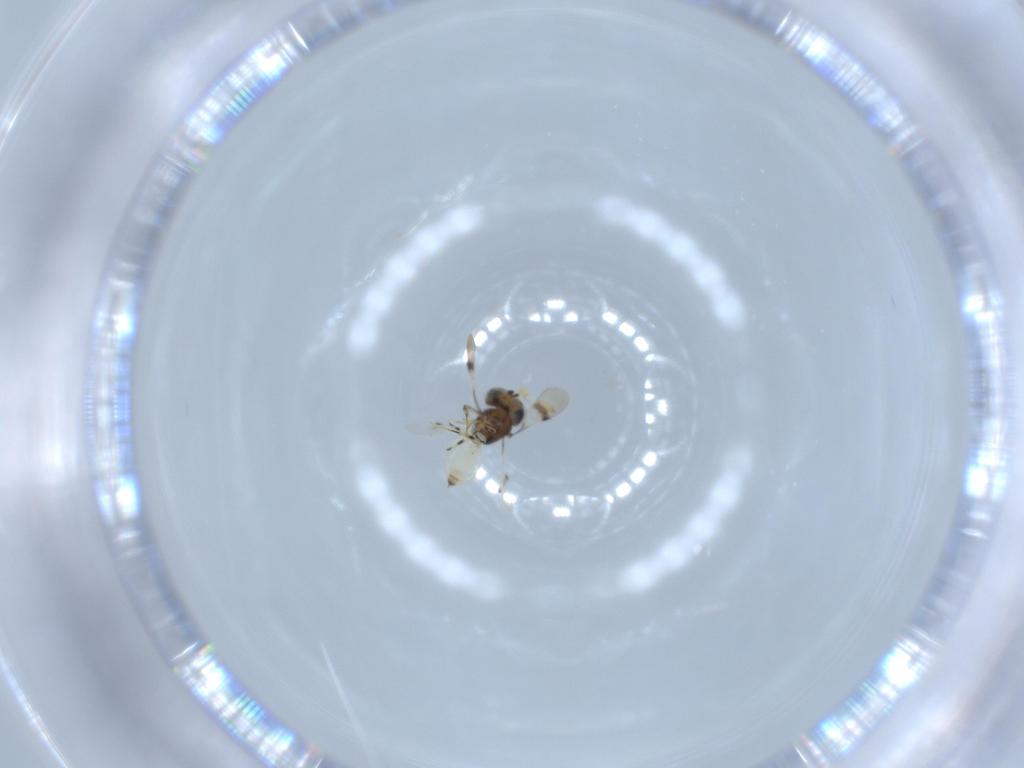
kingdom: Animalia
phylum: Arthropoda
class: Insecta
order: Hymenoptera
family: Scelionidae
